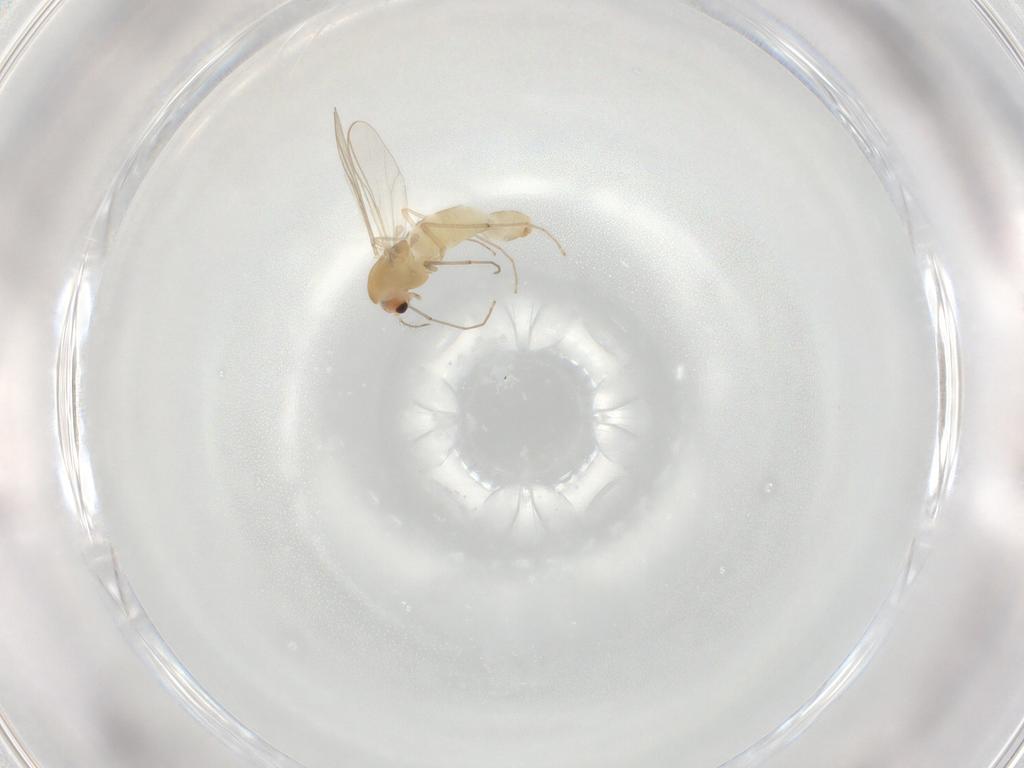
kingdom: Animalia
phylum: Arthropoda
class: Insecta
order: Diptera
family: Chironomidae
